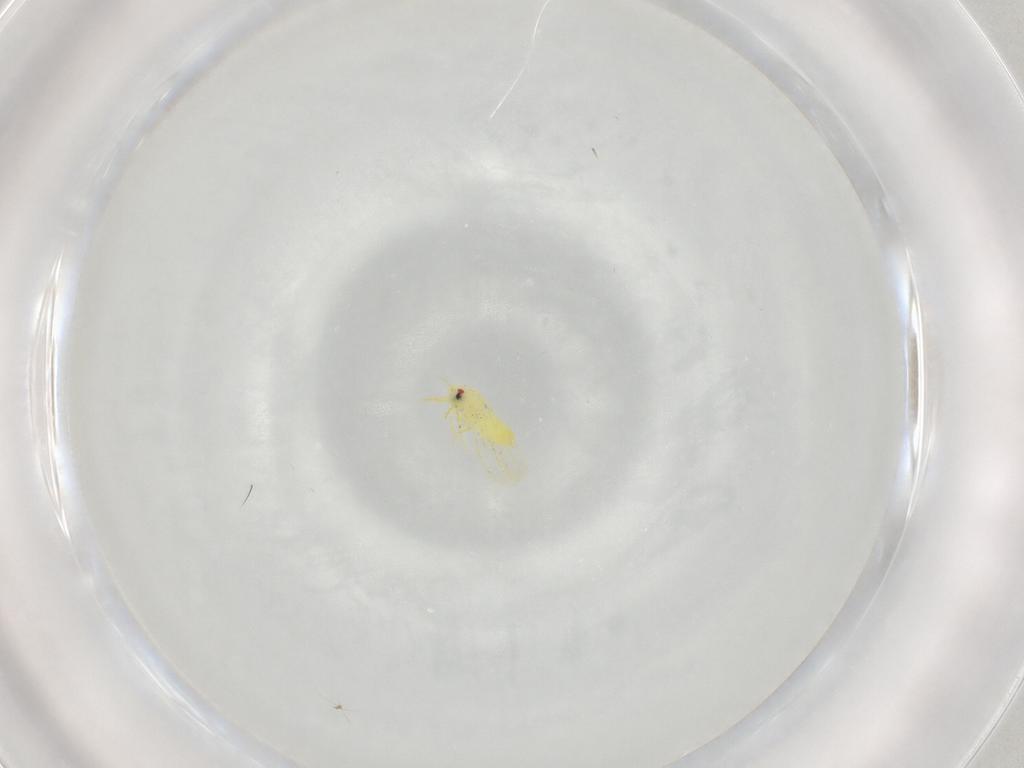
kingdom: Animalia
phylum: Arthropoda
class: Insecta
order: Hemiptera
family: Aleyrodidae
